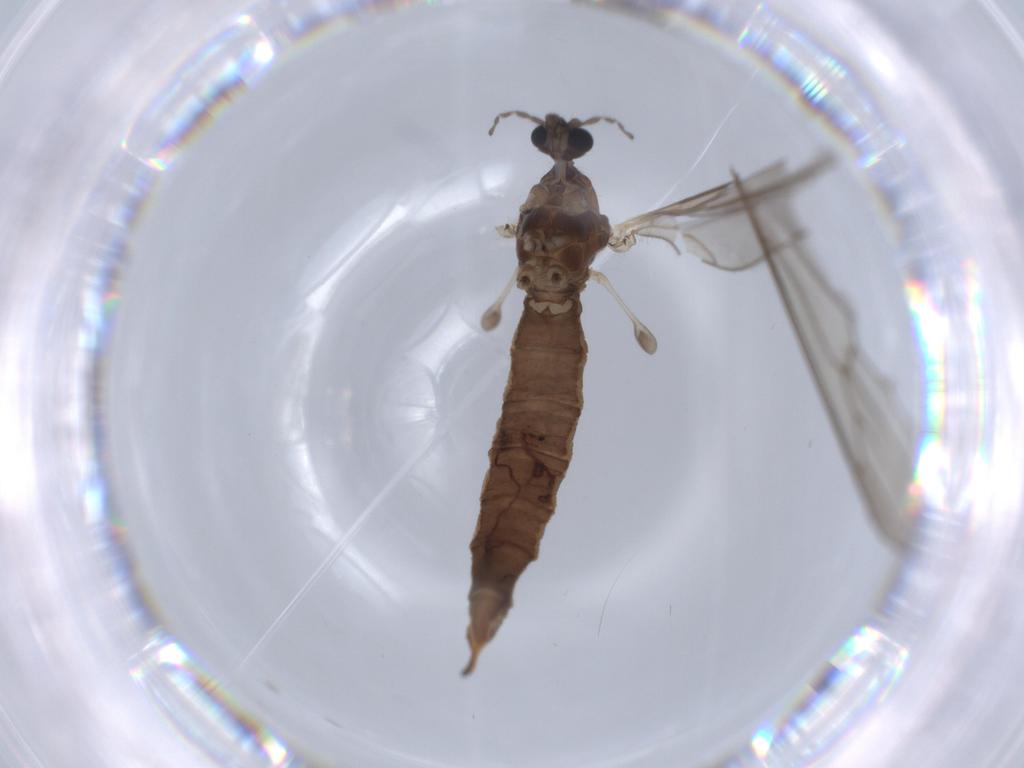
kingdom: Animalia
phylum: Arthropoda
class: Insecta
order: Diptera
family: Trichoceridae
